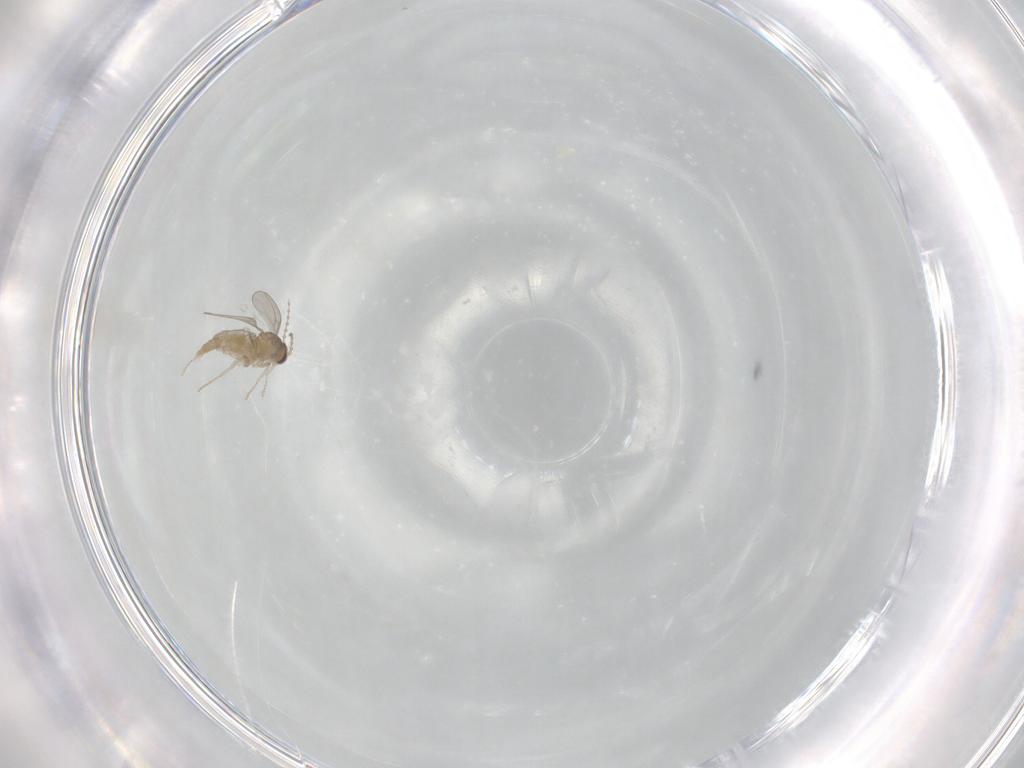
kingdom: Animalia
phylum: Arthropoda
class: Insecta
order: Diptera
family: Cecidomyiidae
